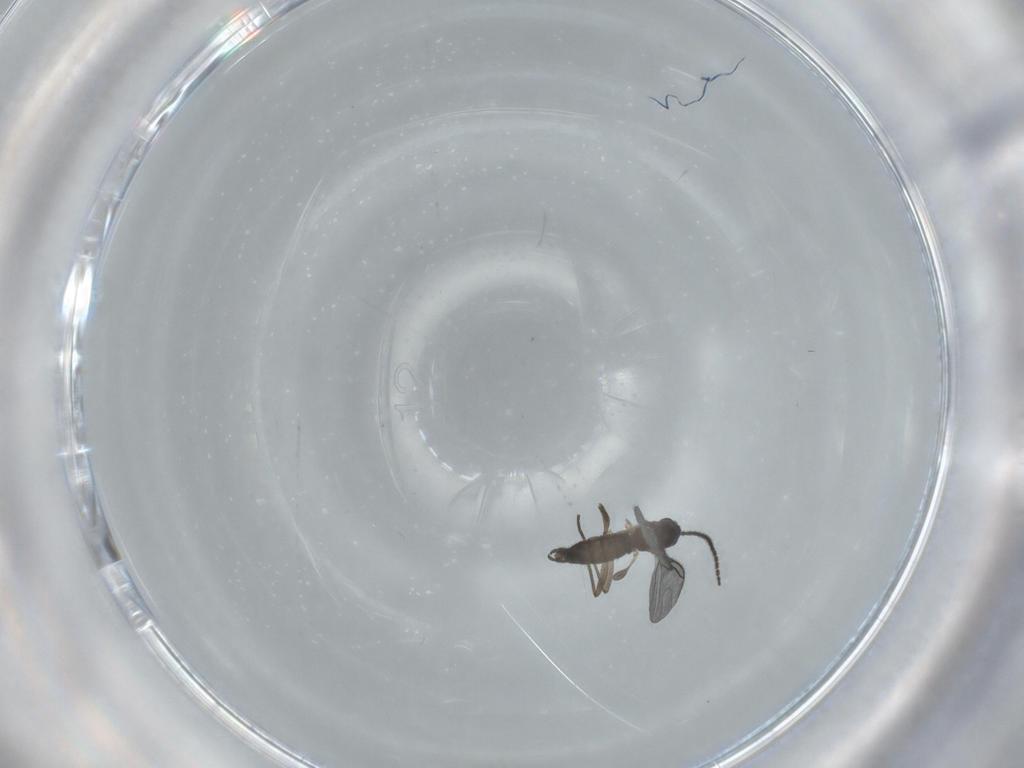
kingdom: Animalia
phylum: Arthropoda
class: Insecta
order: Diptera
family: Sciaridae
